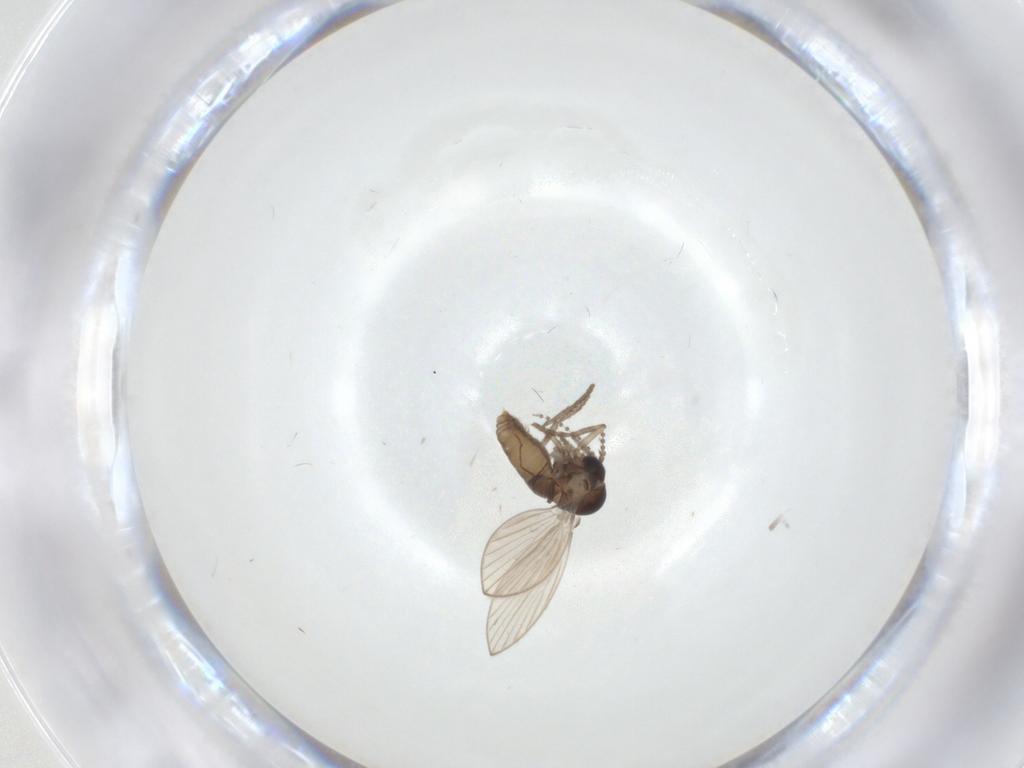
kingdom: Animalia
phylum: Arthropoda
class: Insecta
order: Diptera
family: Psychodidae
